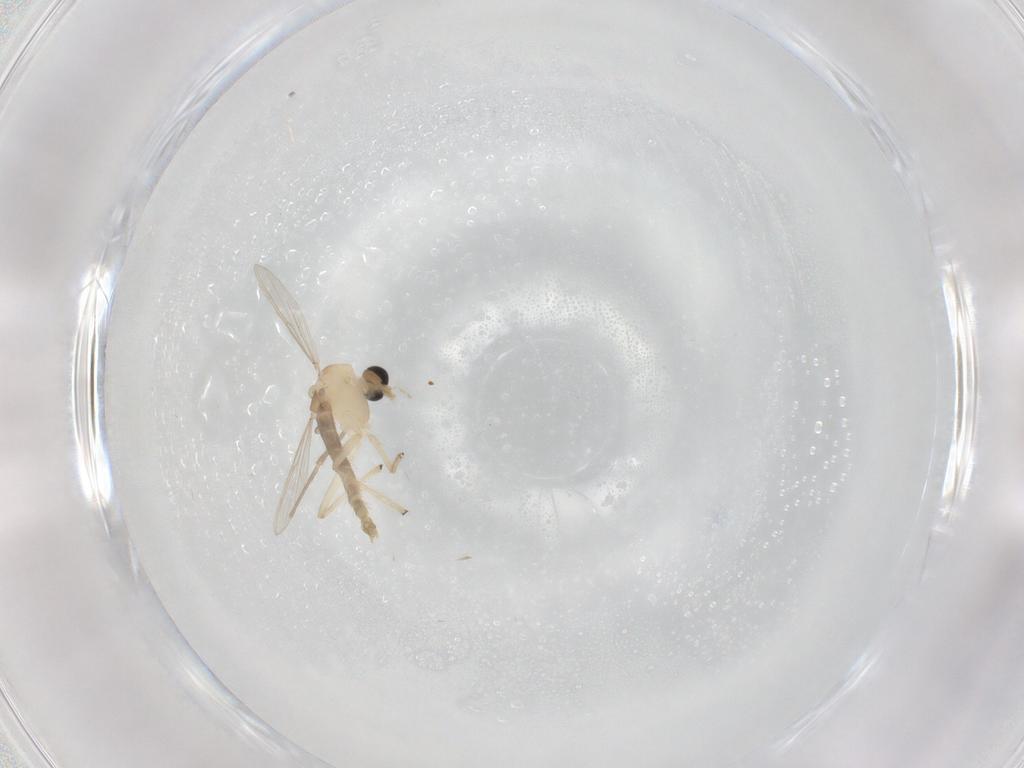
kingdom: Animalia
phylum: Arthropoda
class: Insecta
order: Diptera
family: Chironomidae
